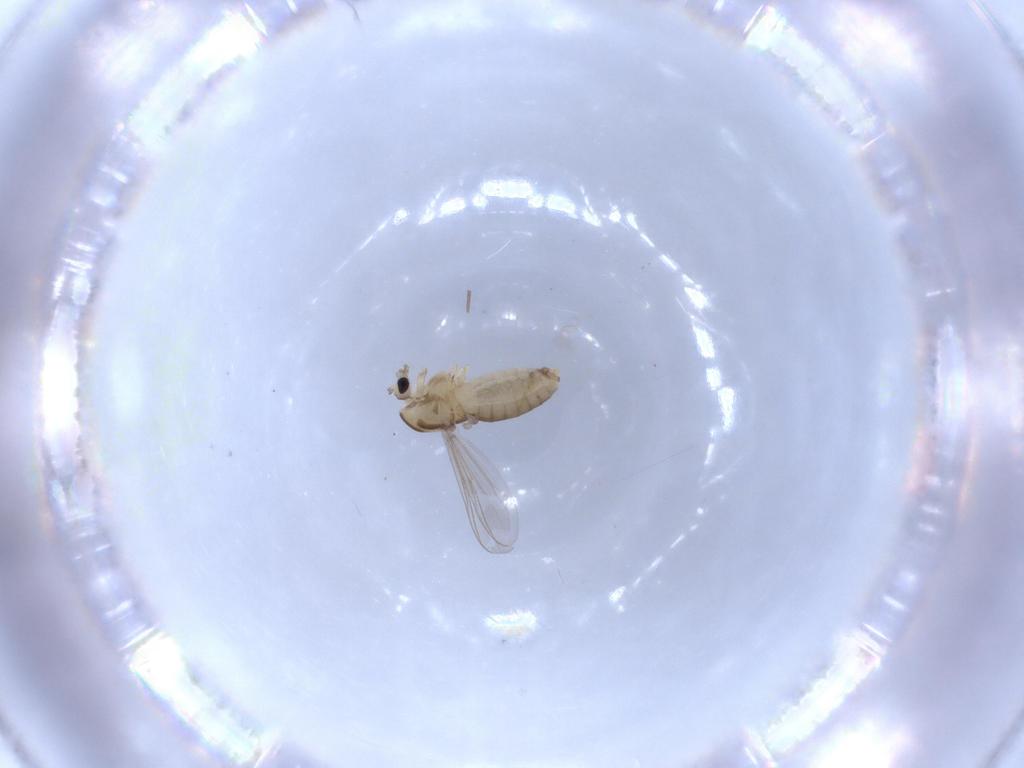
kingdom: Animalia
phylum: Arthropoda
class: Insecta
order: Diptera
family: Chironomidae
